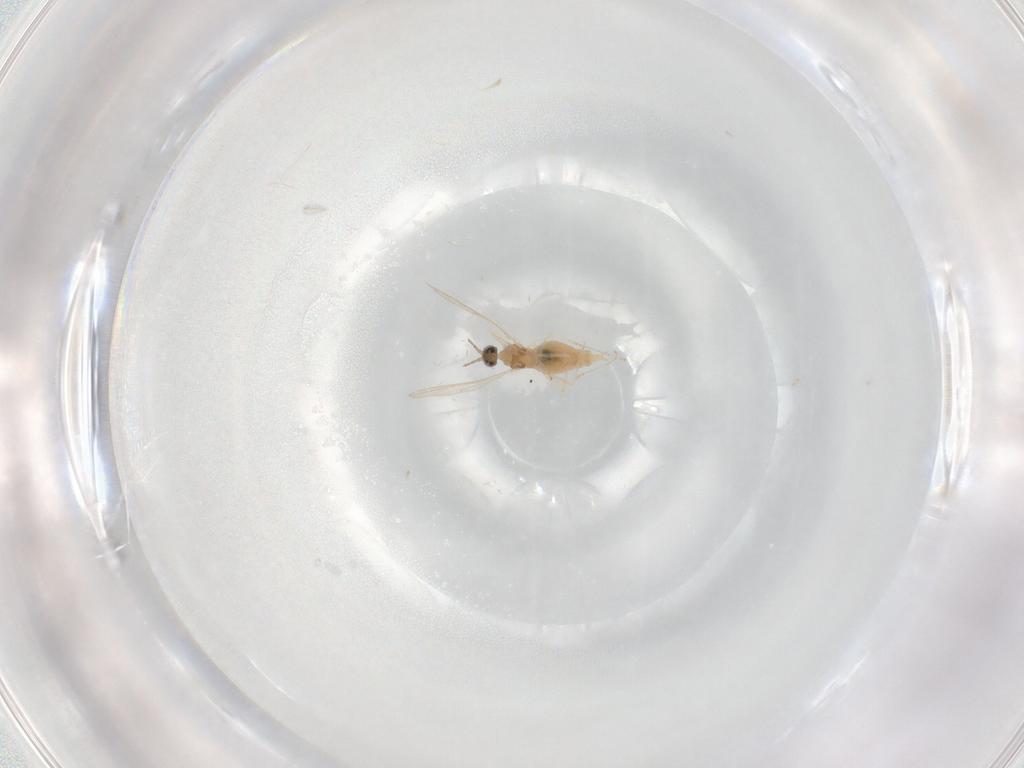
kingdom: Animalia
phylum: Arthropoda
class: Insecta
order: Diptera
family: Cecidomyiidae
